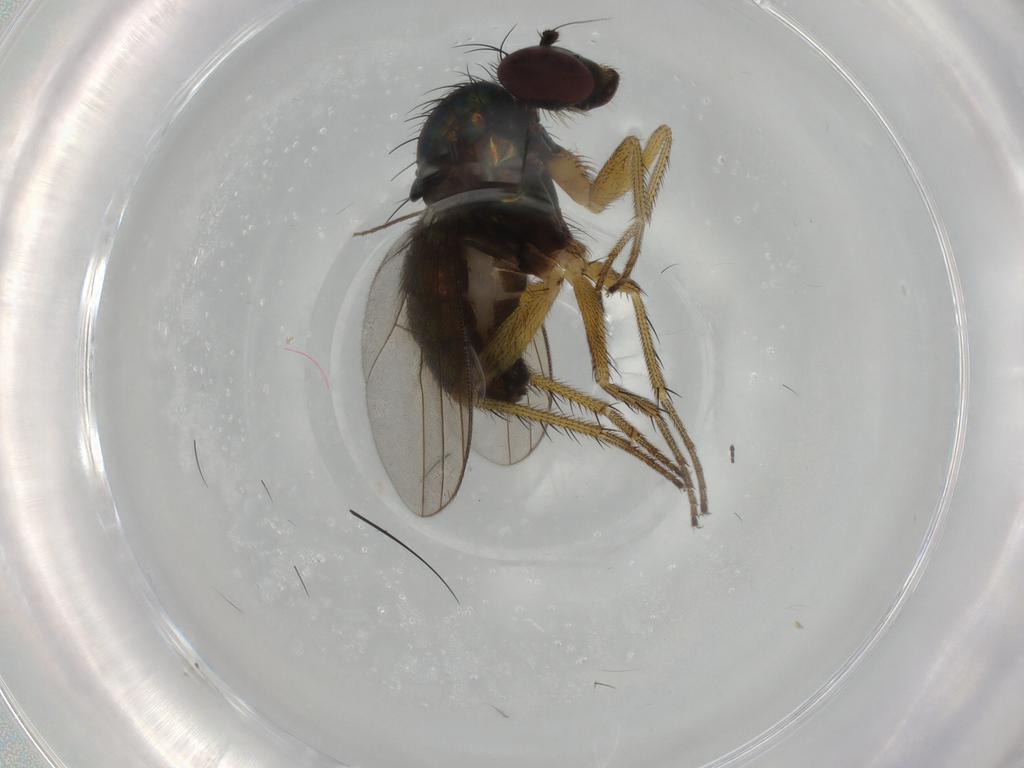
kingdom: Animalia
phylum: Arthropoda
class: Insecta
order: Diptera
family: Dolichopodidae
